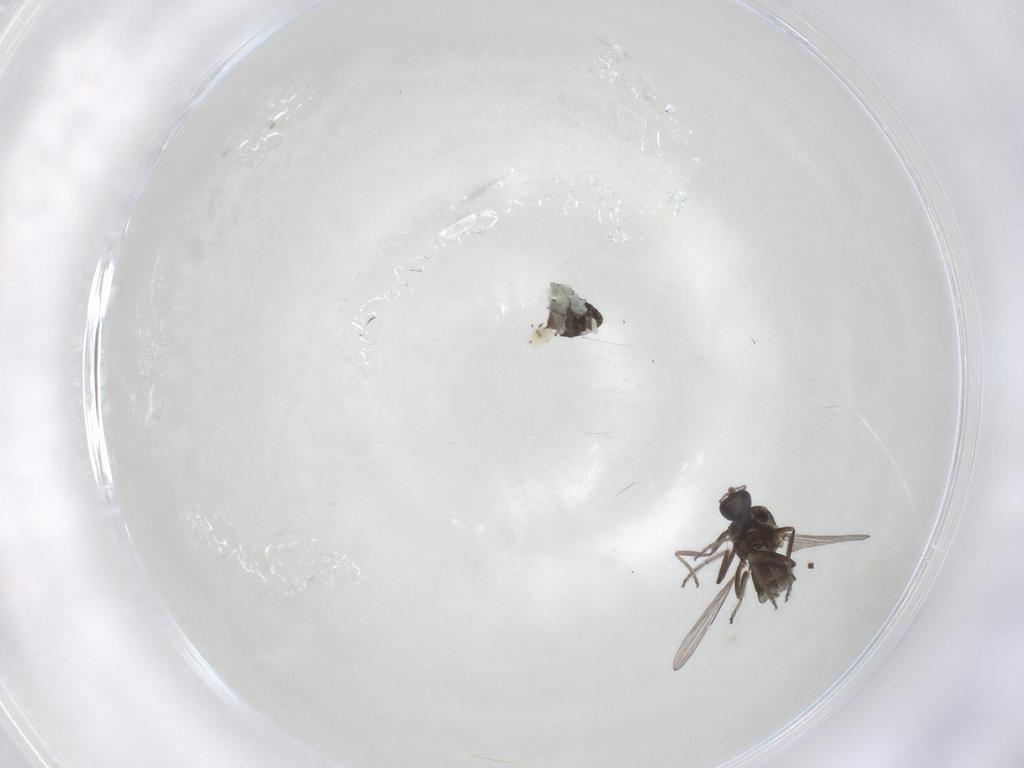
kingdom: Animalia
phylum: Arthropoda
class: Insecta
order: Diptera
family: Ceratopogonidae
